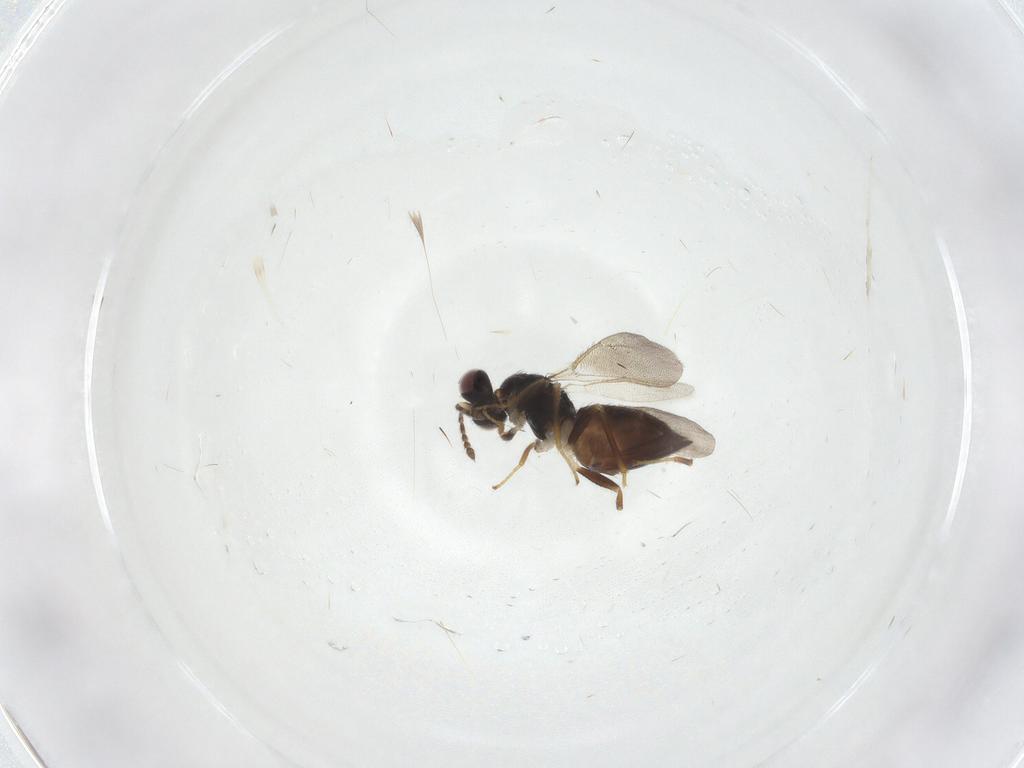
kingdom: Animalia
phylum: Arthropoda
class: Insecta
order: Hymenoptera
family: Eulophidae
